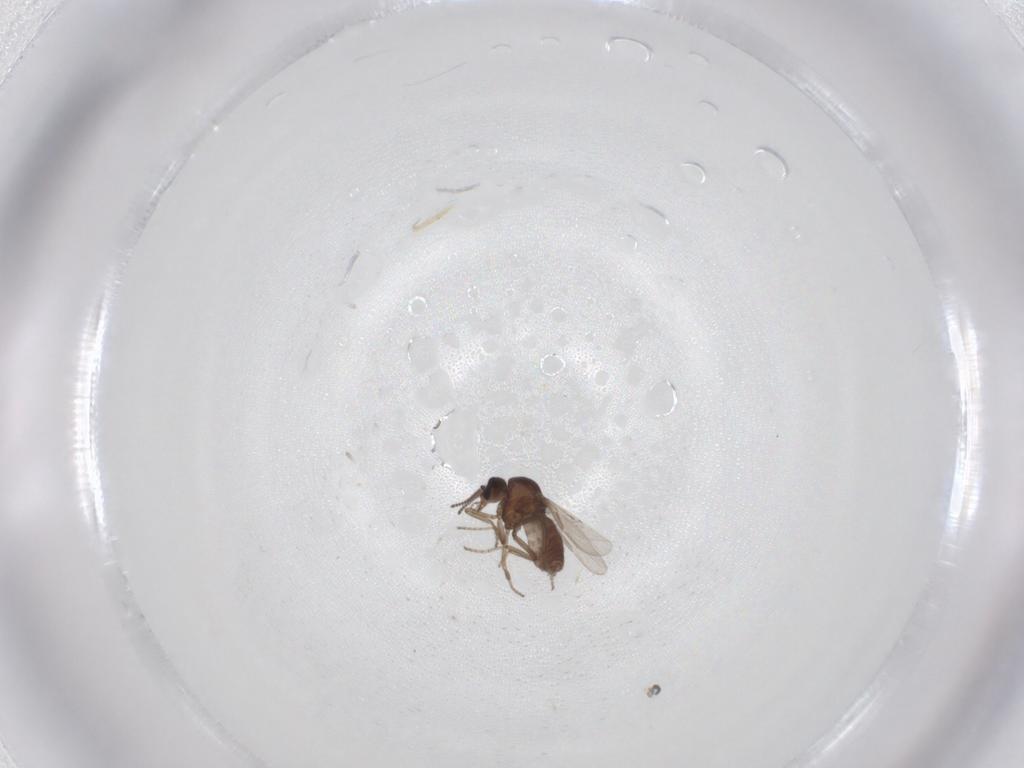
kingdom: Animalia
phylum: Arthropoda
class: Insecta
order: Diptera
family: Ceratopogonidae
